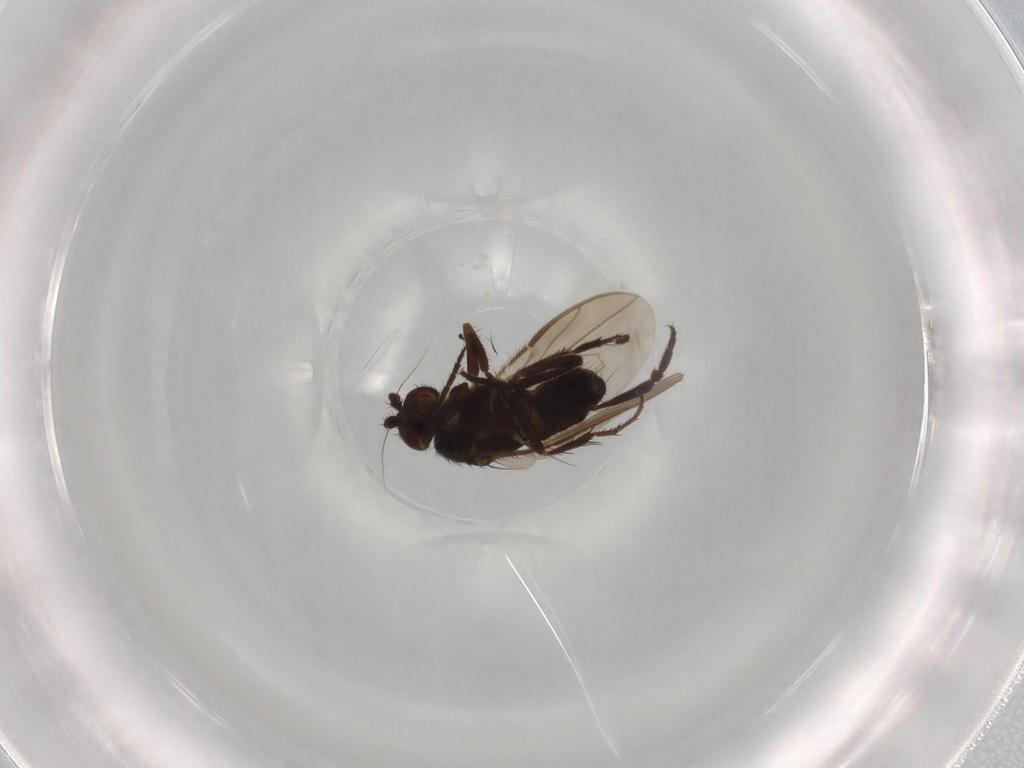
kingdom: Animalia
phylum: Arthropoda
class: Insecta
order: Diptera
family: Sphaeroceridae
